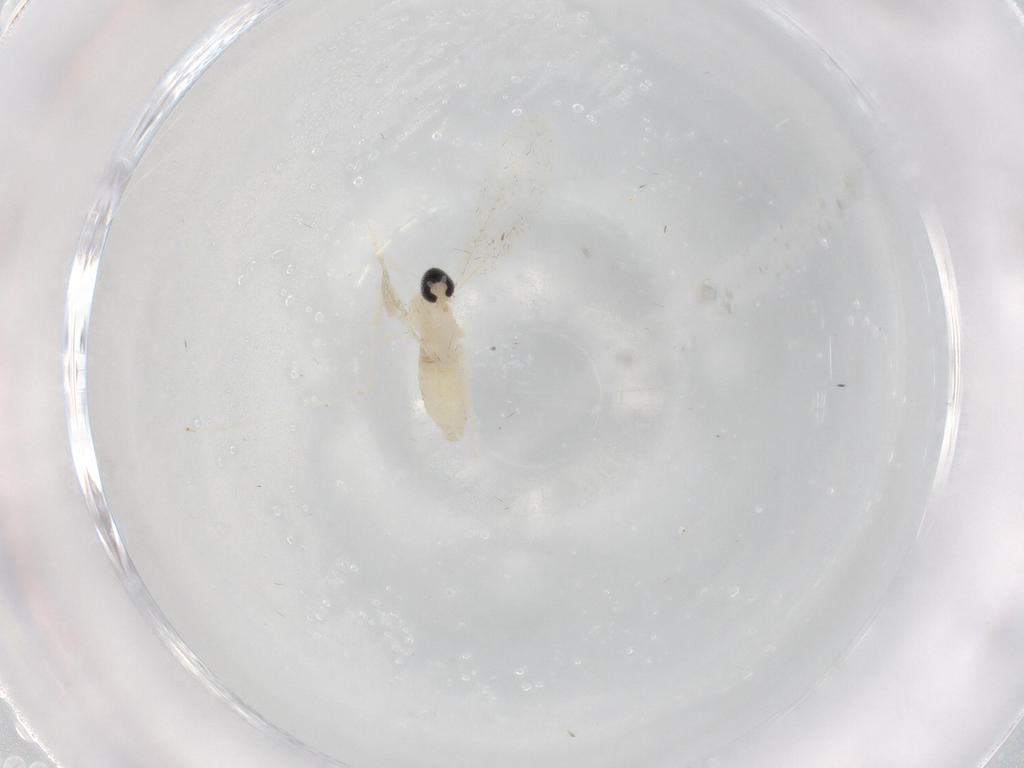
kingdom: Animalia
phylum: Arthropoda
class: Insecta
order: Diptera
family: Cecidomyiidae
